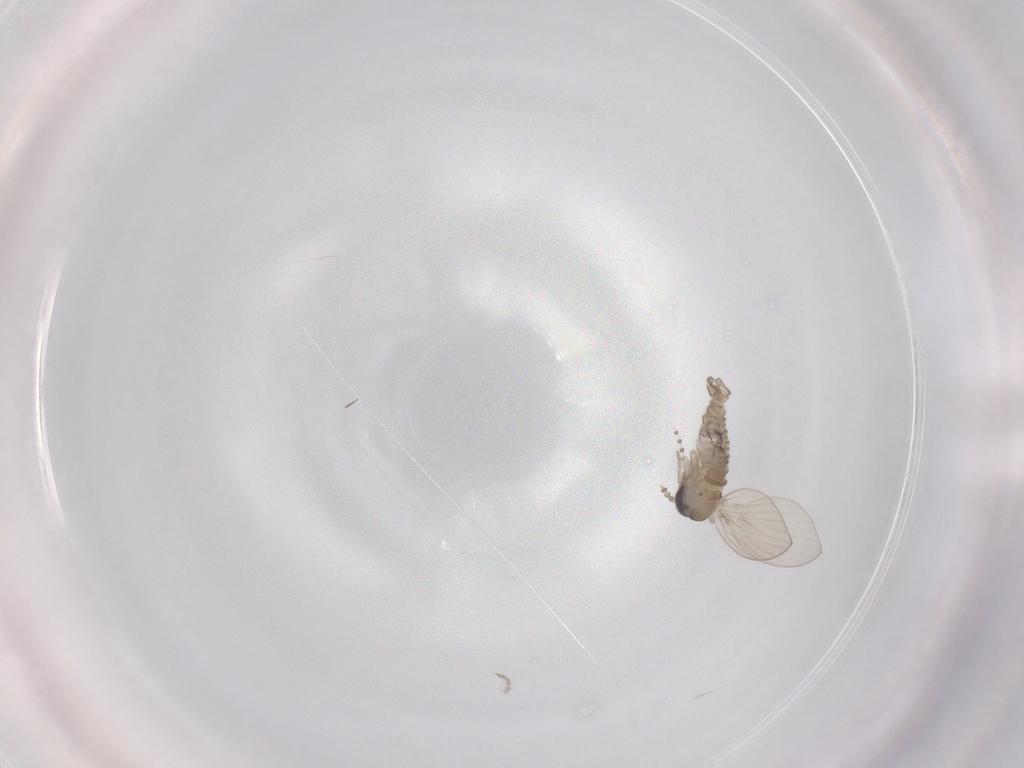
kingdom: Animalia
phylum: Arthropoda
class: Insecta
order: Diptera
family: Psychodidae
